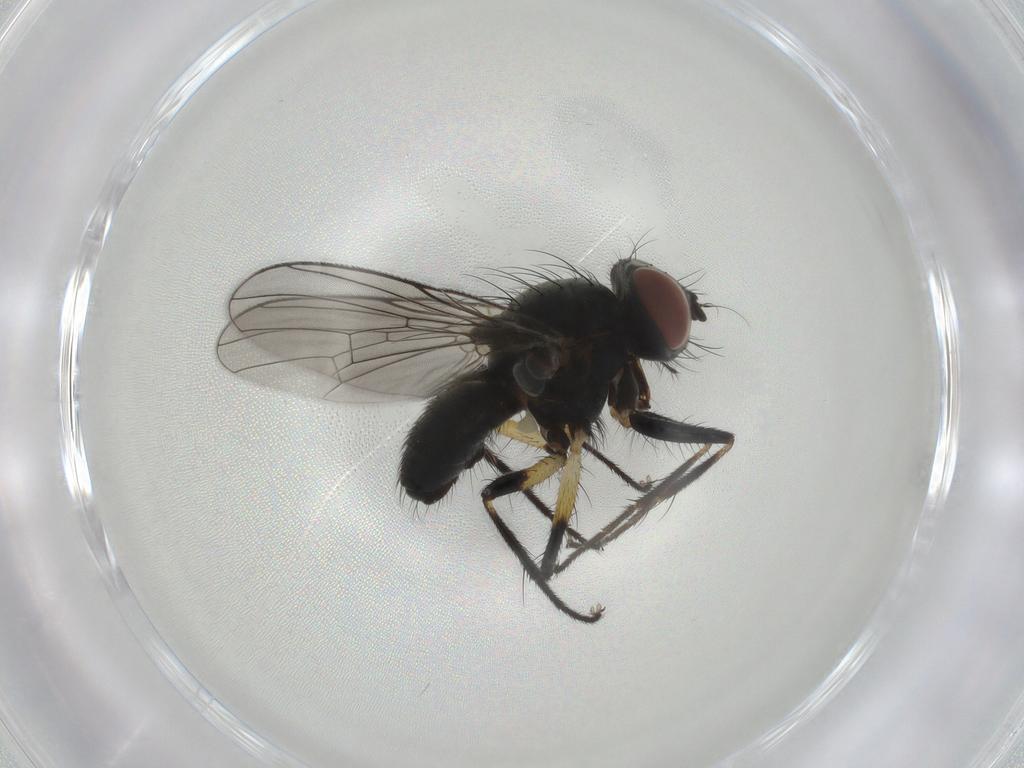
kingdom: Animalia
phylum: Arthropoda
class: Insecta
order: Diptera
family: Muscidae
